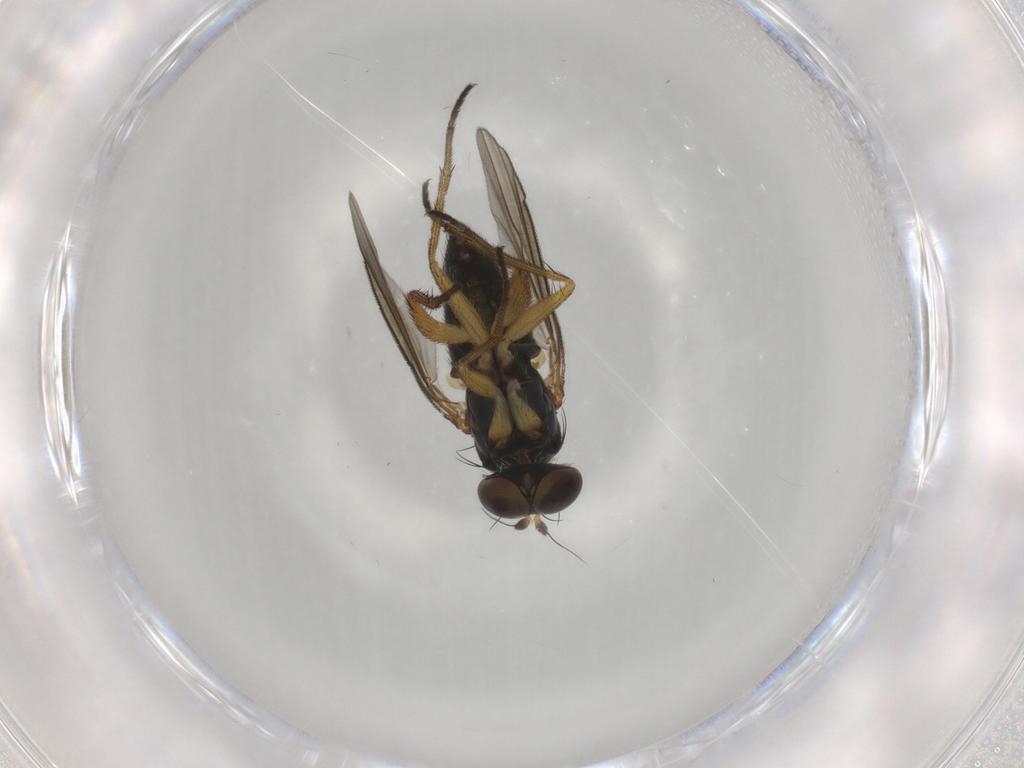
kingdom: Animalia
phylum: Arthropoda
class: Insecta
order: Diptera
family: Dolichopodidae
